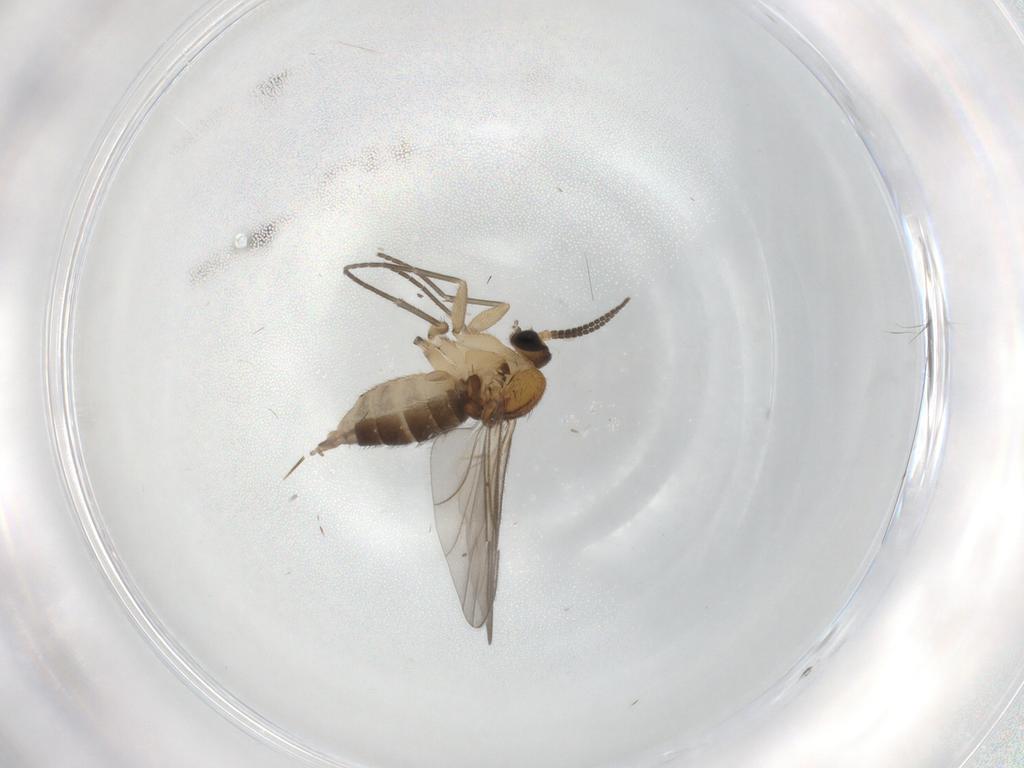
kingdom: Animalia
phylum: Arthropoda
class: Insecta
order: Diptera
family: Sciaridae
